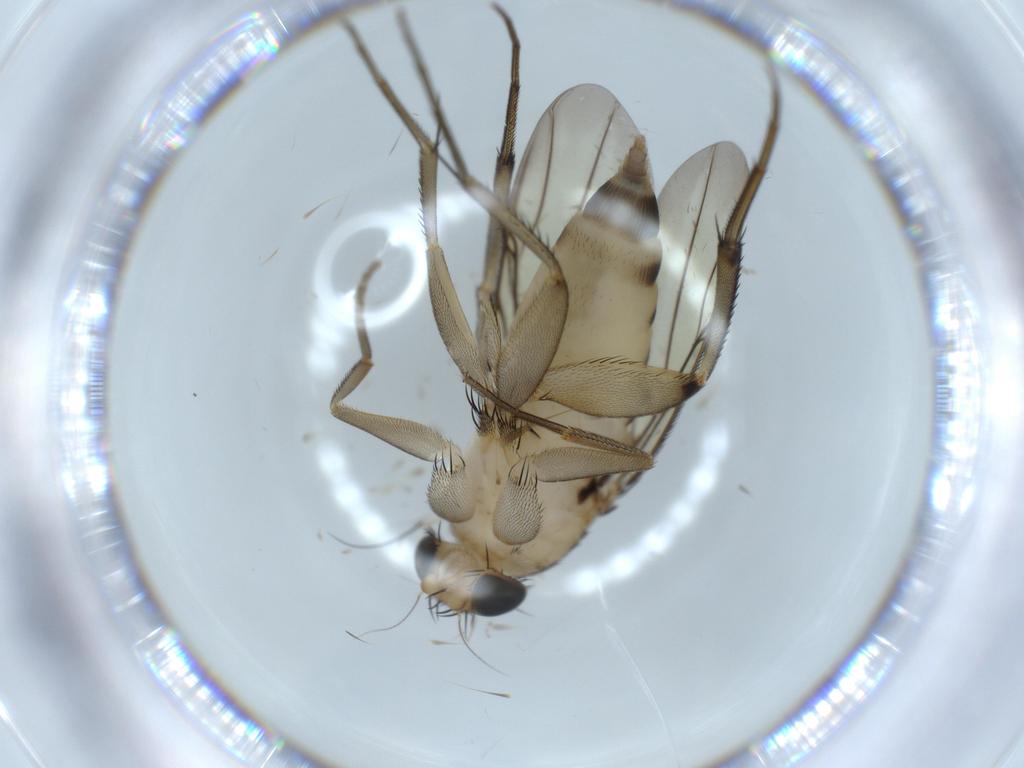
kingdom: Animalia
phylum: Arthropoda
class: Insecta
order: Diptera
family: Phoridae
